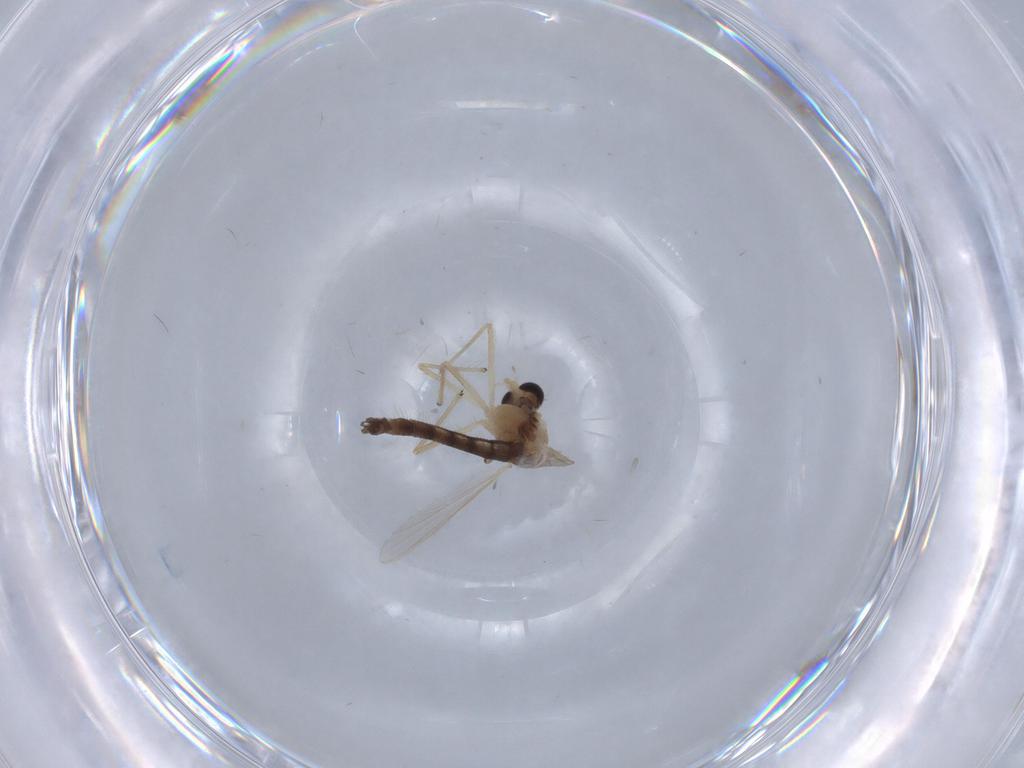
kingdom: Animalia
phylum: Arthropoda
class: Insecta
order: Diptera
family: Chironomidae
